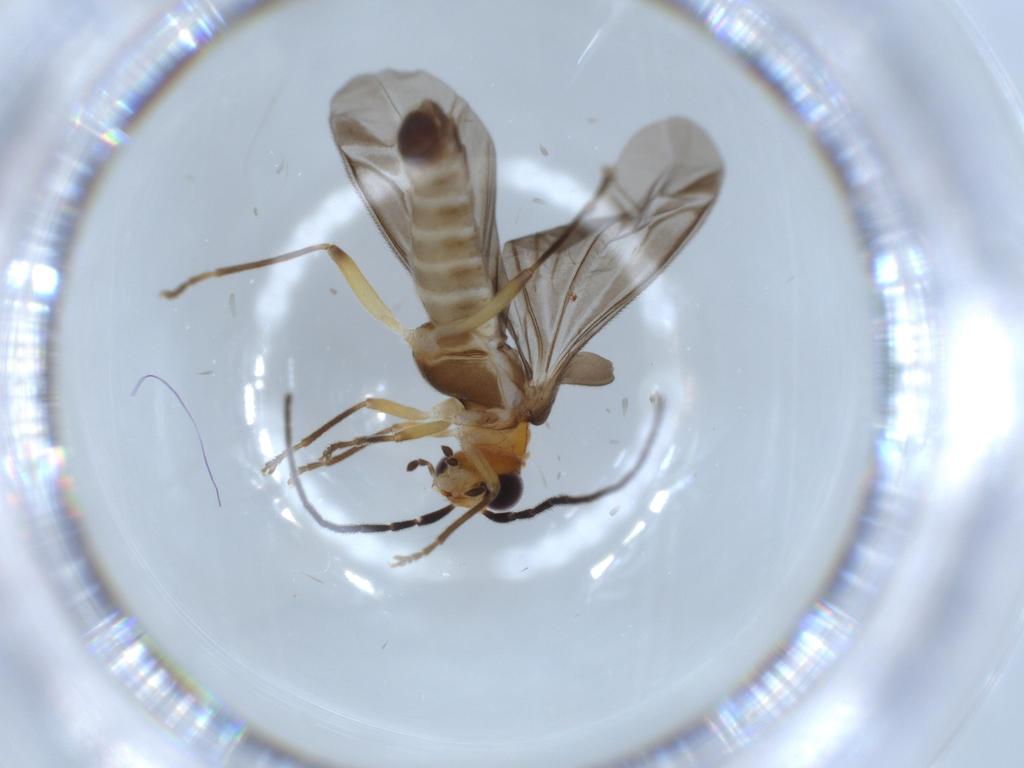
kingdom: Animalia
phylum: Arthropoda
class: Insecta
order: Coleoptera
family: Cantharidae
